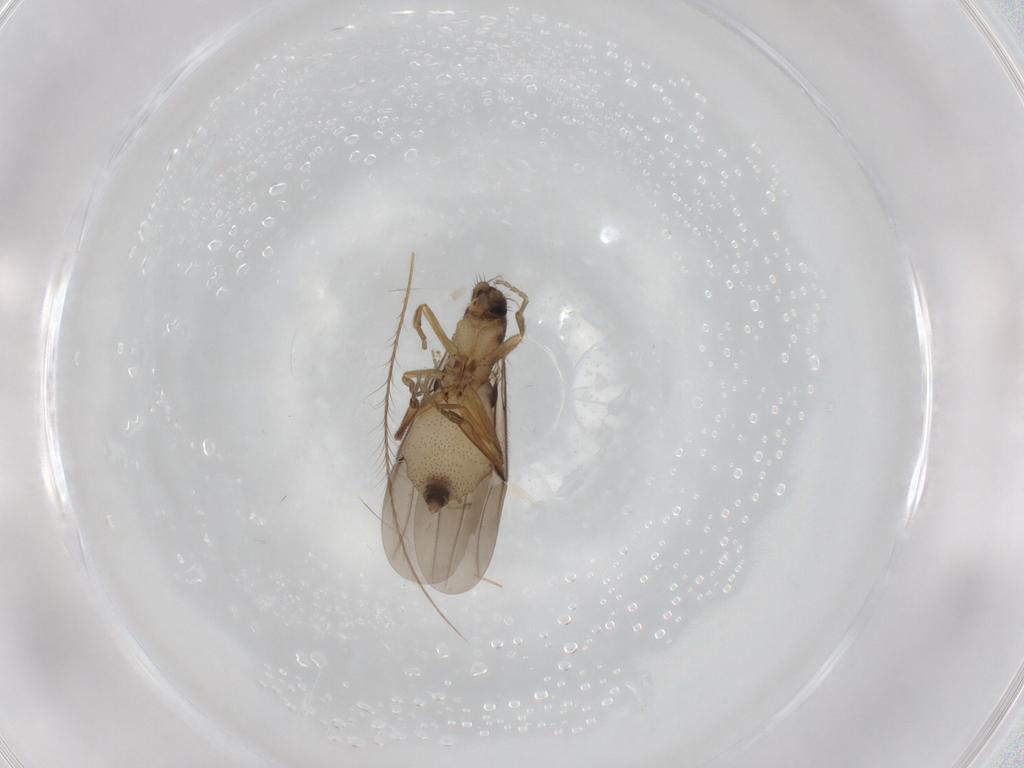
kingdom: Animalia
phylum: Arthropoda
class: Insecta
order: Diptera
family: Phoridae
